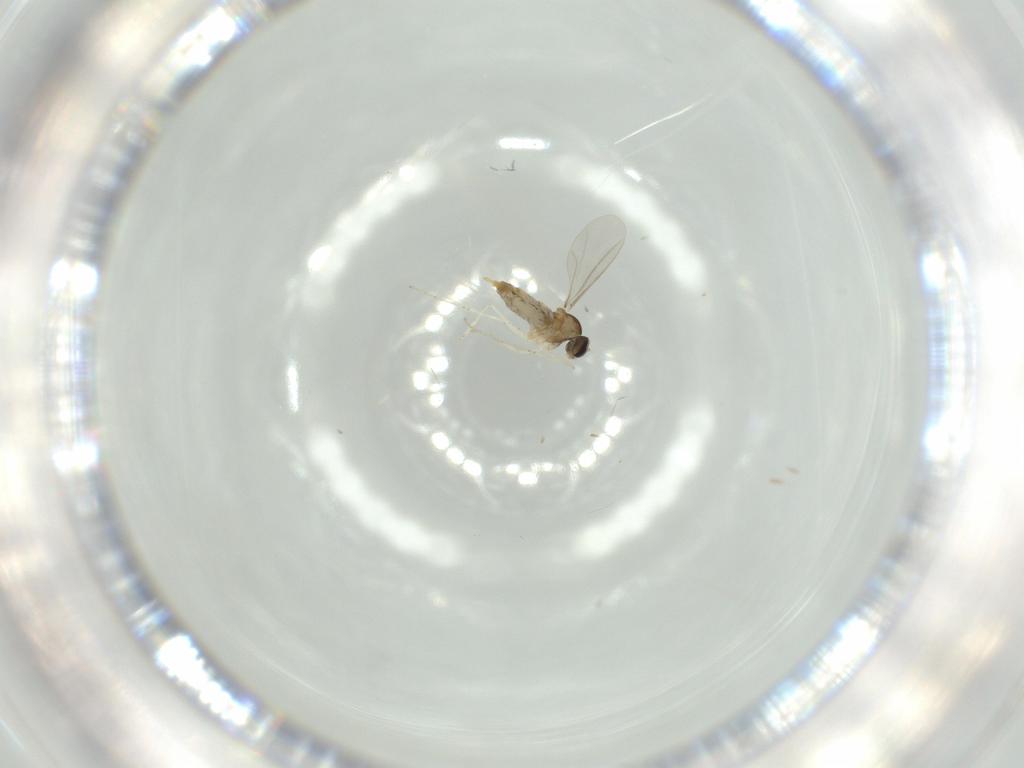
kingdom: Animalia
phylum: Arthropoda
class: Insecta
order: Diptera
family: Cecidomyiidae
